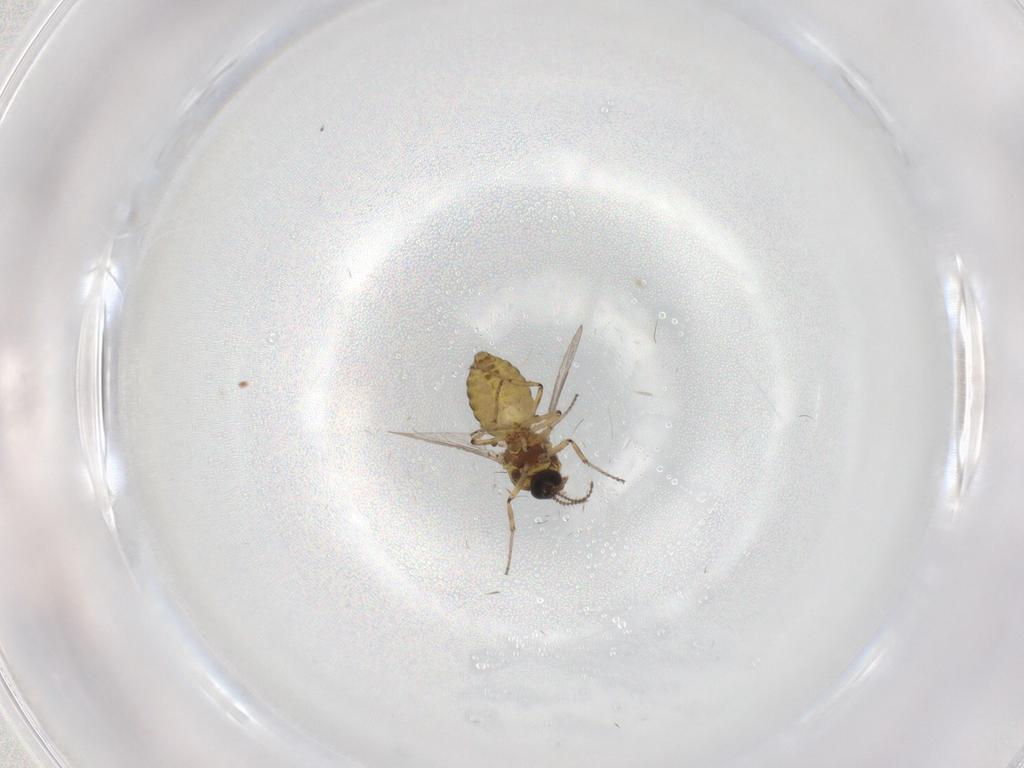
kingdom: Animalia
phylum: Arthropoda
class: Insecta
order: Diptera
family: Ceratopogonidae
